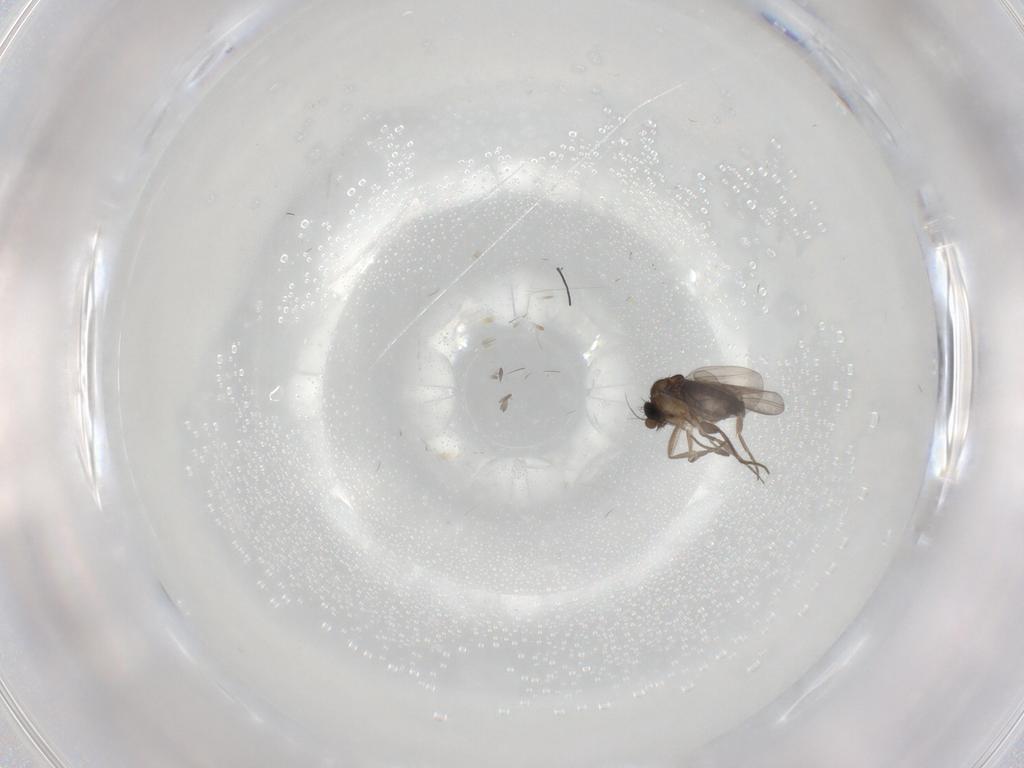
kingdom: Animalia
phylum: Arthropoda
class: Insecta
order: Diptera
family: Phoridae
